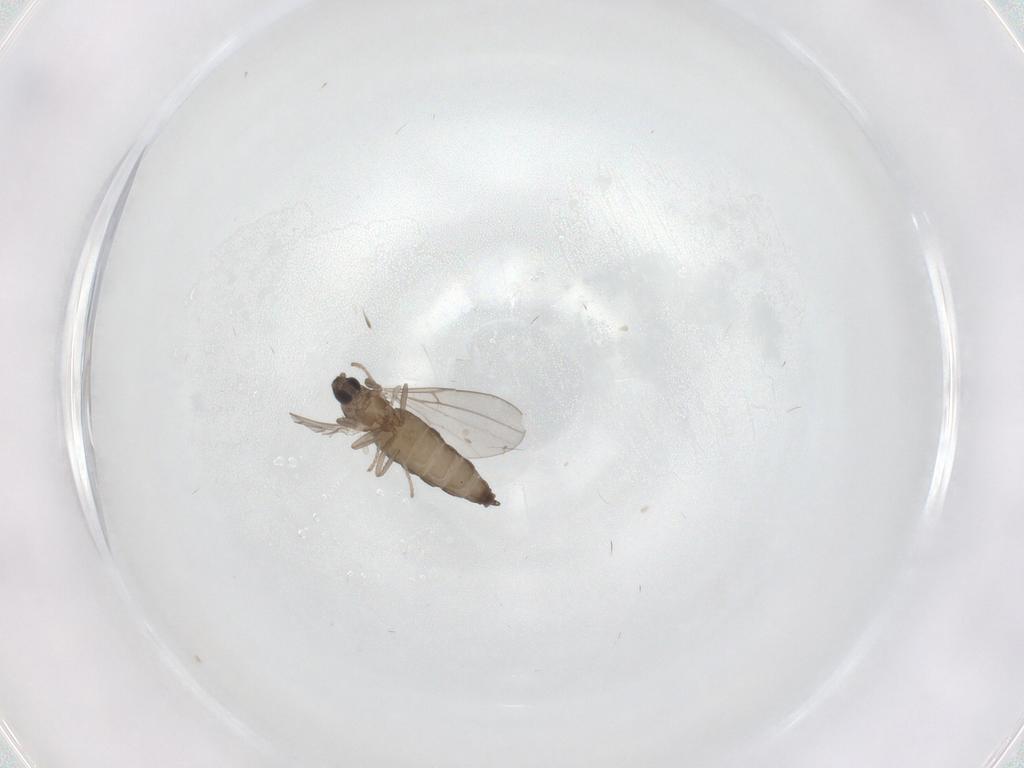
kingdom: Animalia
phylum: Arthropoda
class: Insecta
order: Diptera
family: Cecidomyiidae
